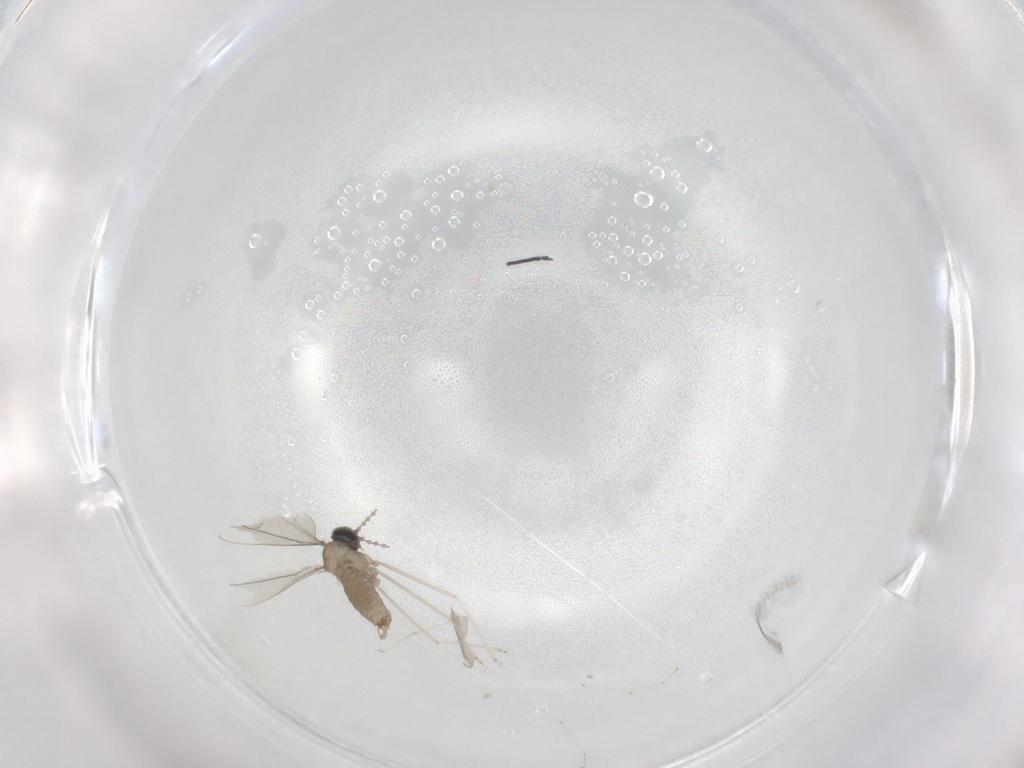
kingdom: Animalia
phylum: Arthropoda
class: Insecta
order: Diptera
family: Cecidomyiidae
